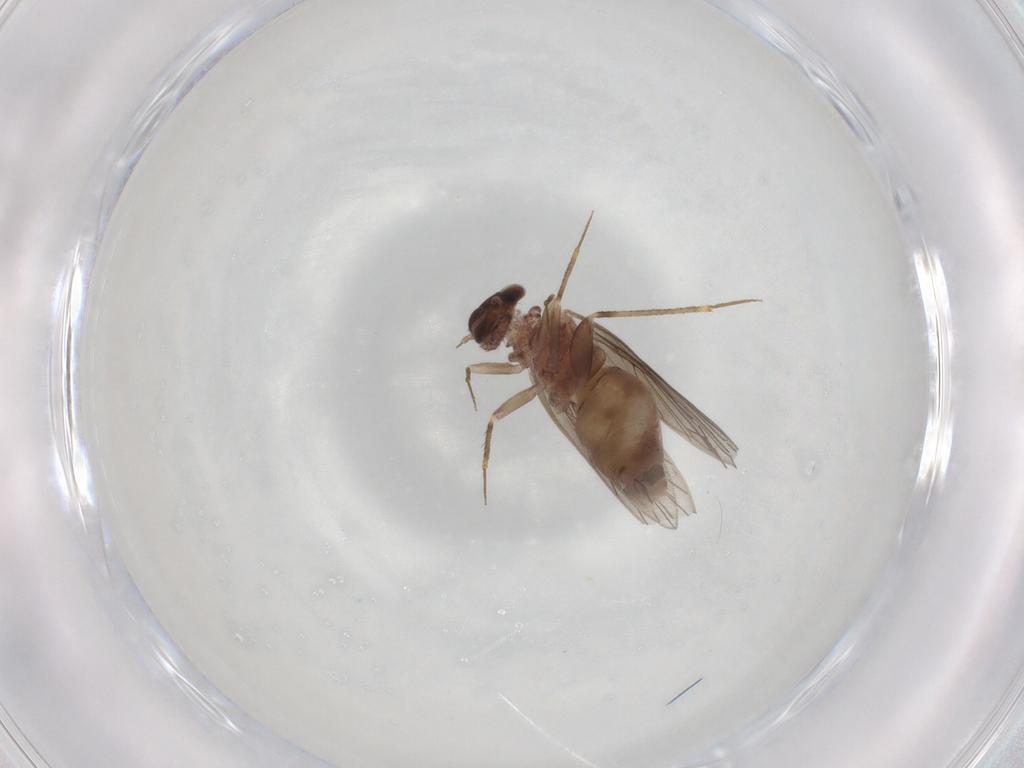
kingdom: Animalia
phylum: Arthropoda
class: Insecta
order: Psocodea
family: Lepidopsocidae
